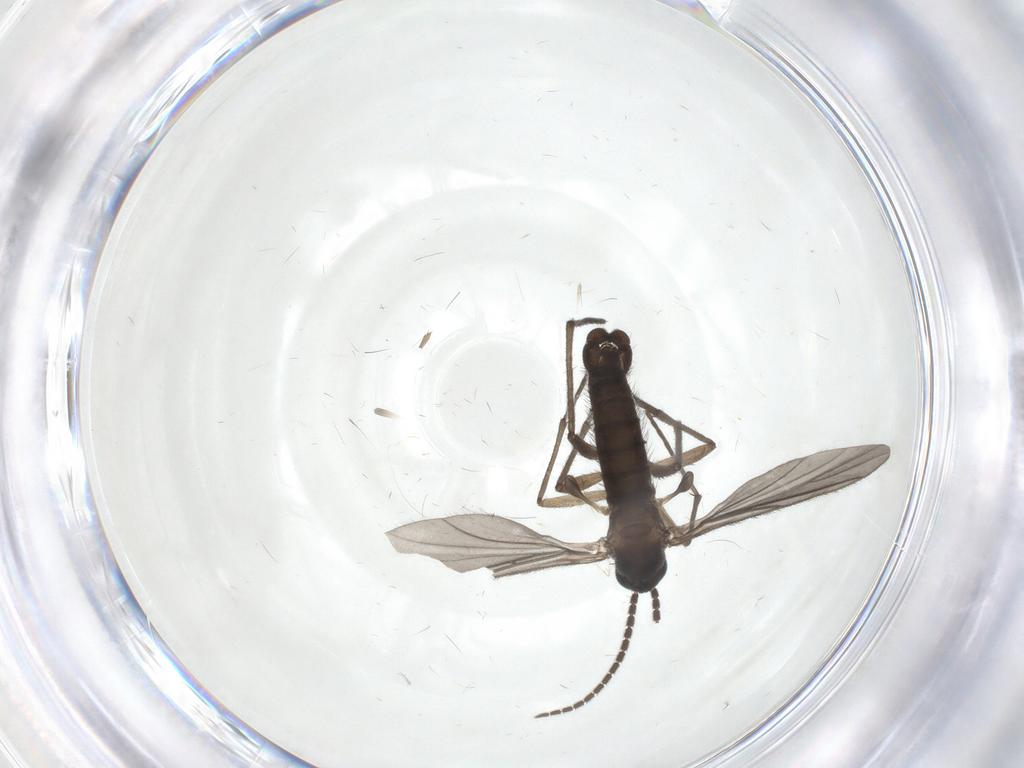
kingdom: Animalia
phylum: Arthropoda
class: Insecta
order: Diptera
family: Sciaridae
